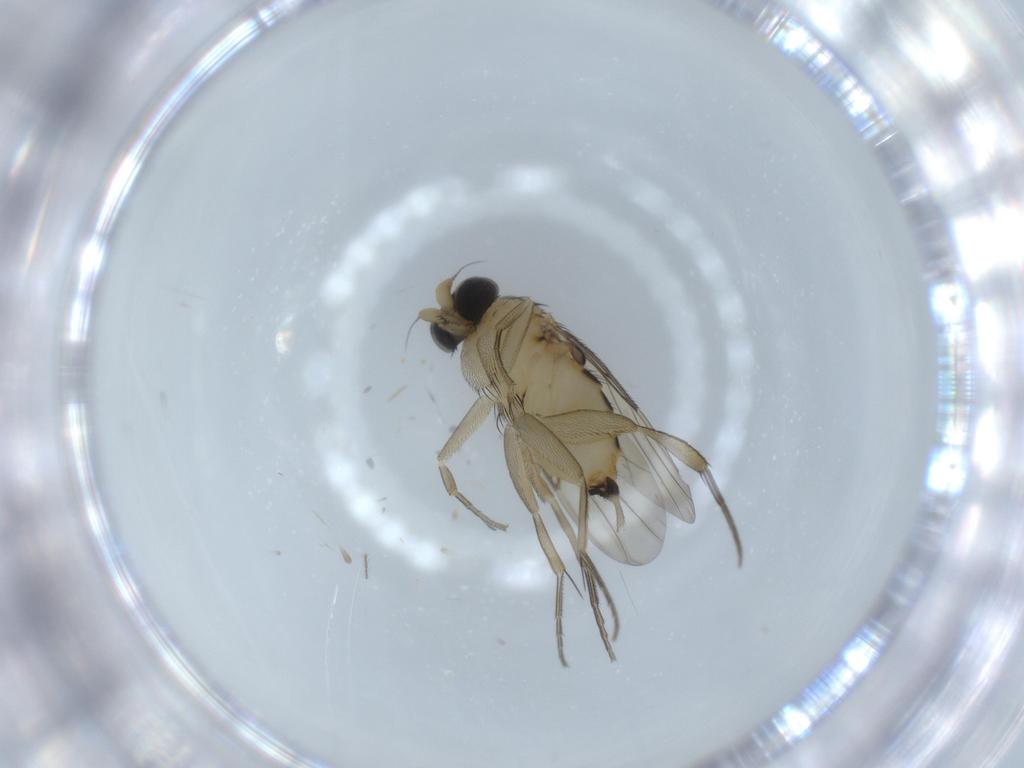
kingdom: Animalia
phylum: Arthropoda
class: Insecta
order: Diptera
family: Phoridae
